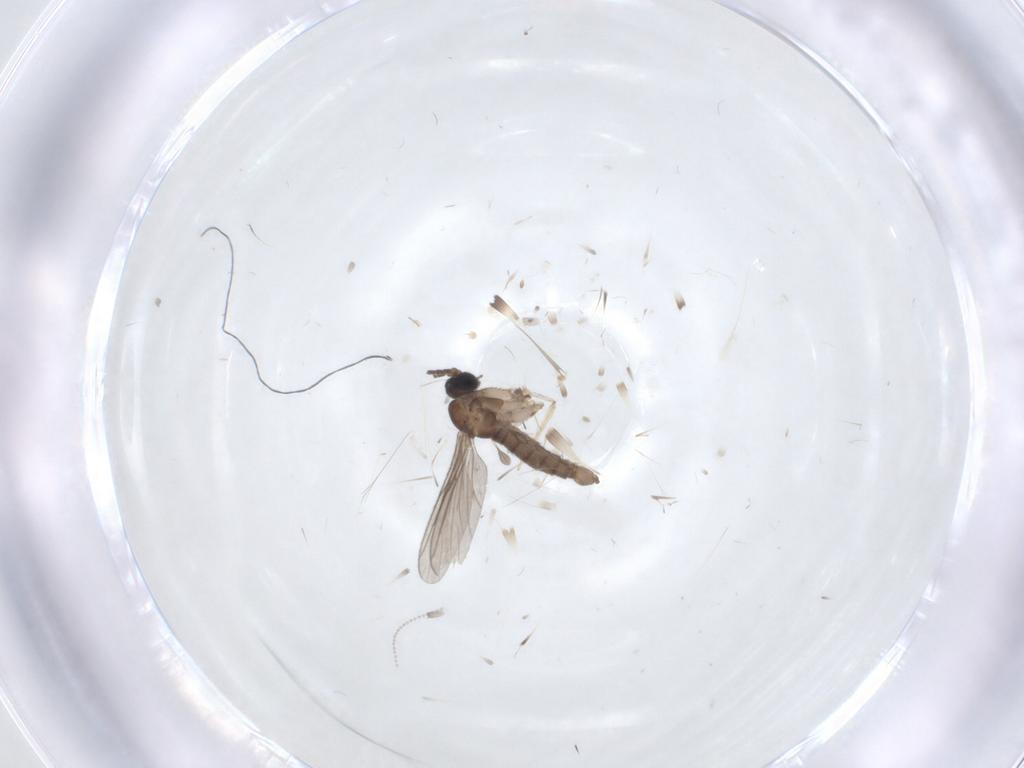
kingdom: Animalia
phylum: Arthropoda
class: Insecta
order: Diptera
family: Sciaridae
